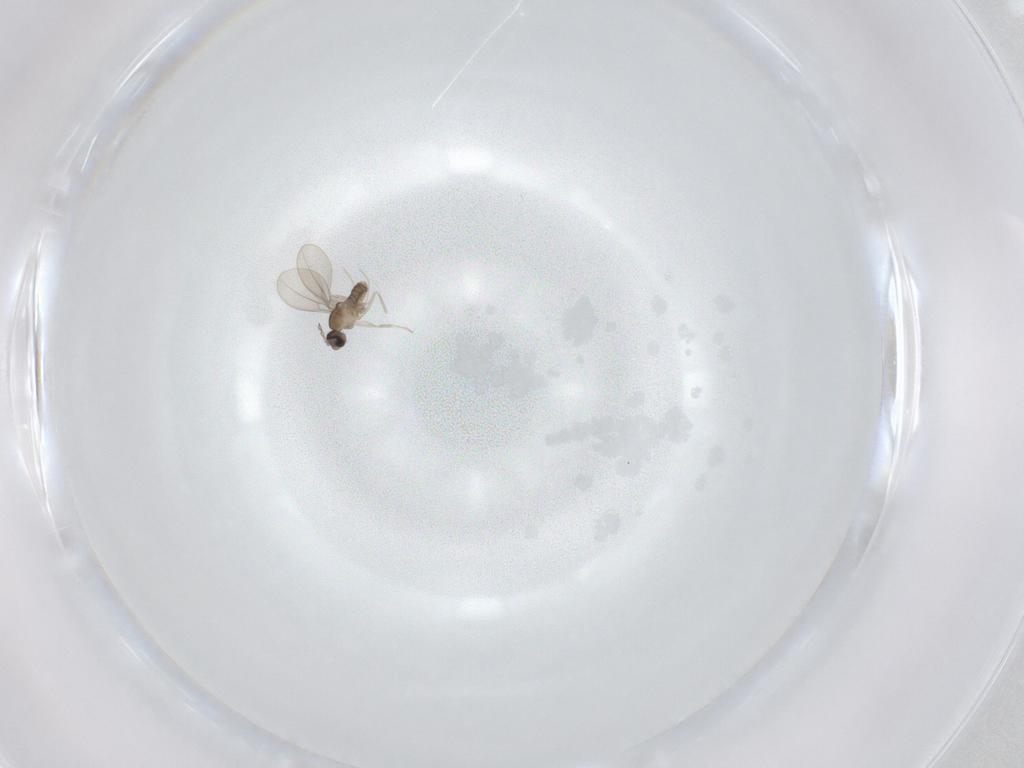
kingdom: Animalia
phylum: Arthropoda
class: Insecta
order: Diptera
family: Cecidomyiidae
